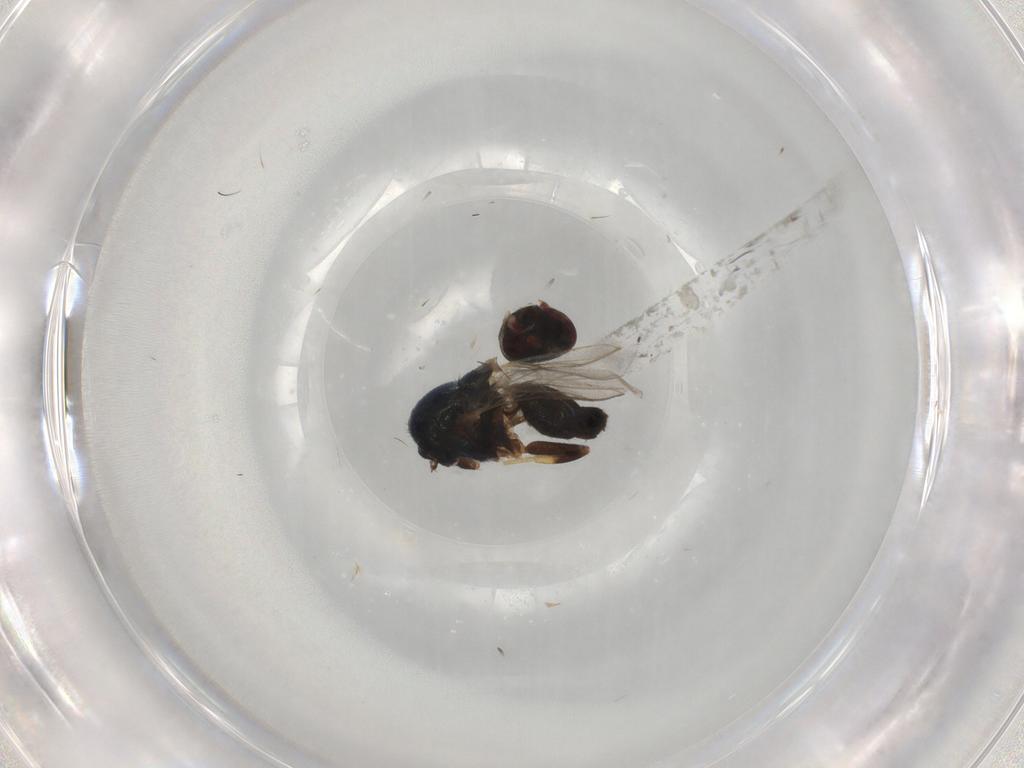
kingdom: Animalia
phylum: Arthropoda
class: Insecta
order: Diptera
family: Chloropidae
